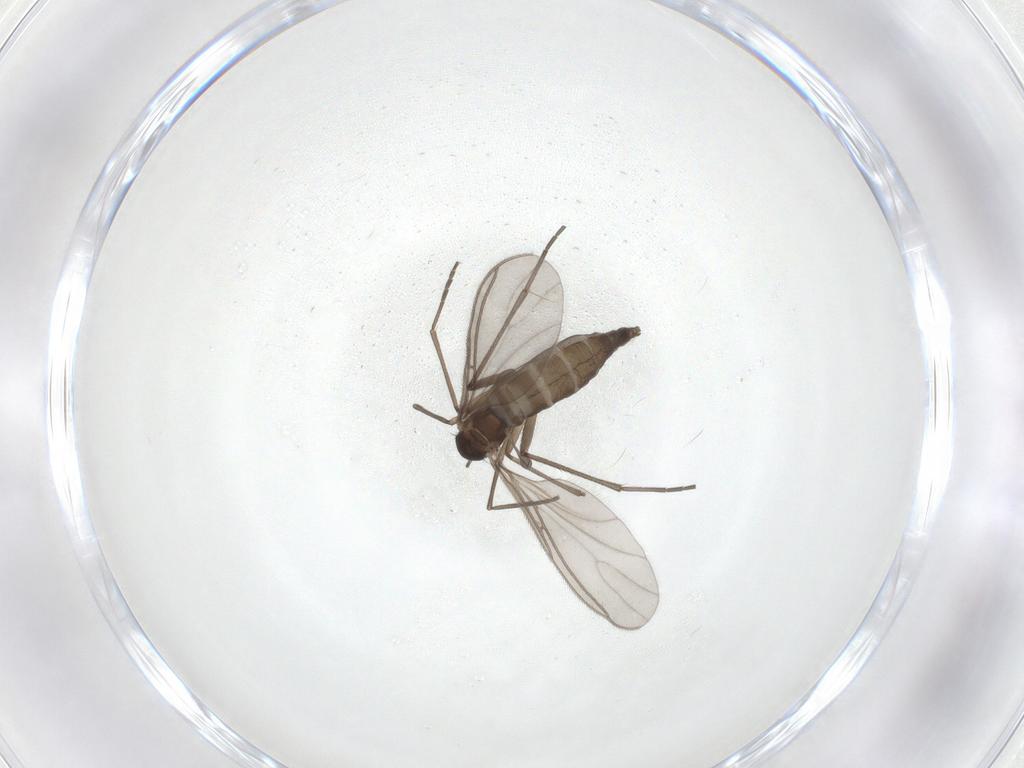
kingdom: Animalia
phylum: Arthropoda
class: Insecta
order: Diptera
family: Sciaridae
